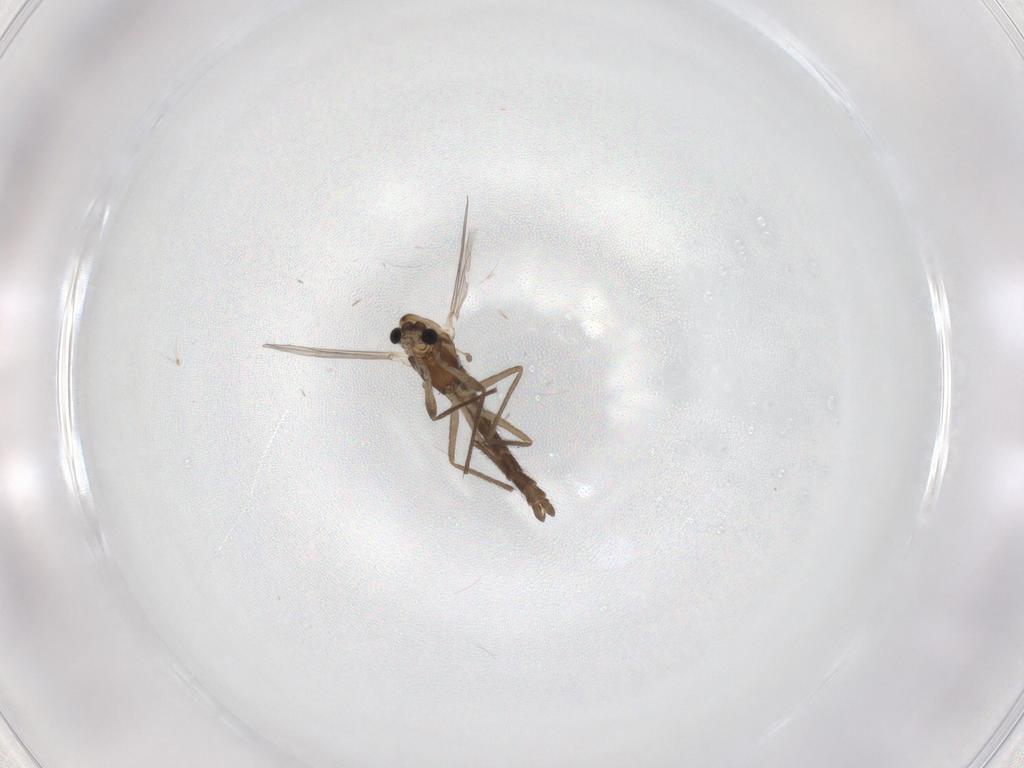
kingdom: Animalia
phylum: Arthropoda
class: Insecta
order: Diptera
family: Chironomidae
